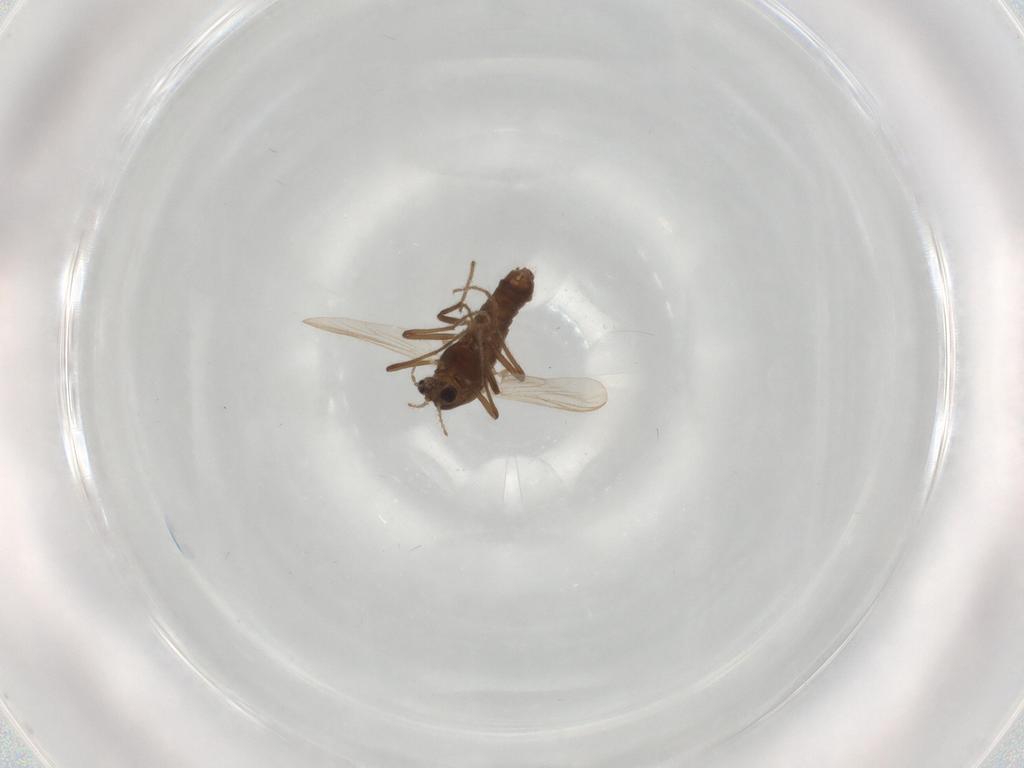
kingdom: Animalia
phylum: Arthropoda
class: Insecta
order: Diptera
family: Chironomidae
